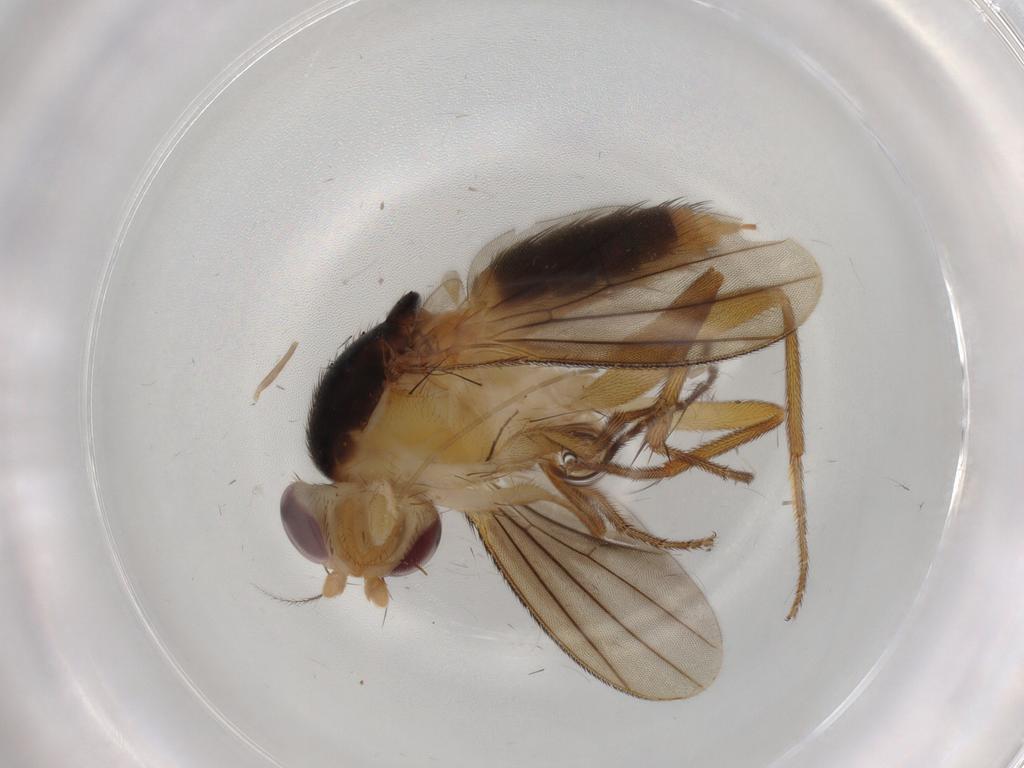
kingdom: Animalia
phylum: Arthropoda
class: Insecta
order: Diptera
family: Clusiidae
